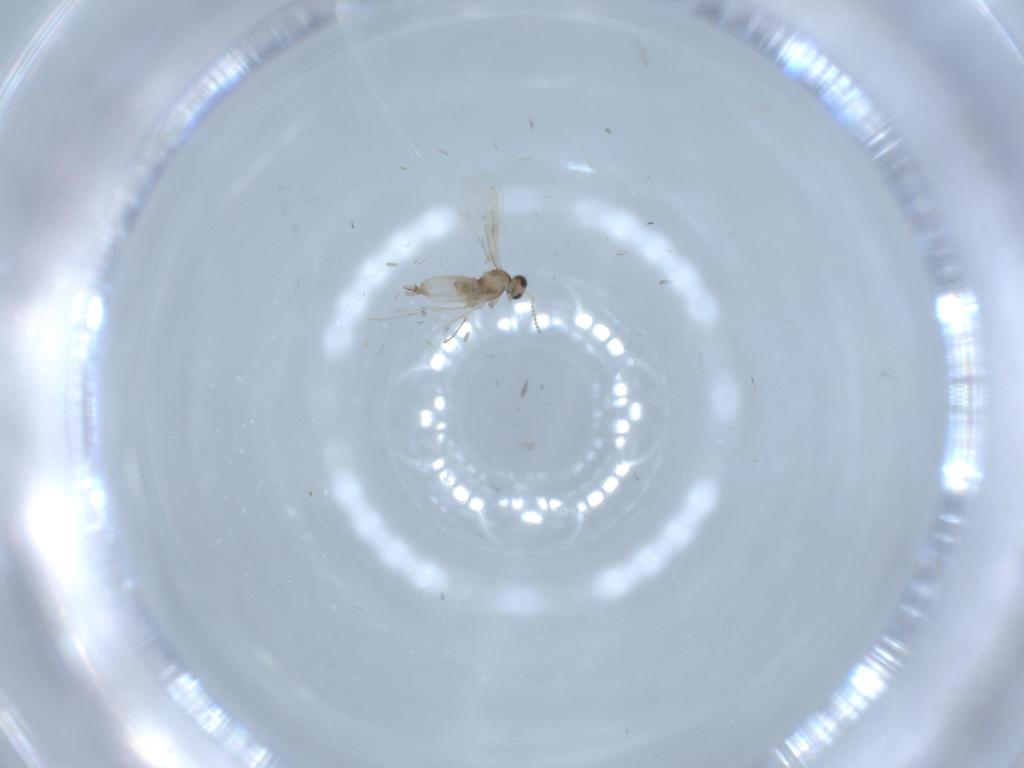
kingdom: Animalia
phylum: Arthropoda
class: Insecta
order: Diptera
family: Cecidomyiidae
